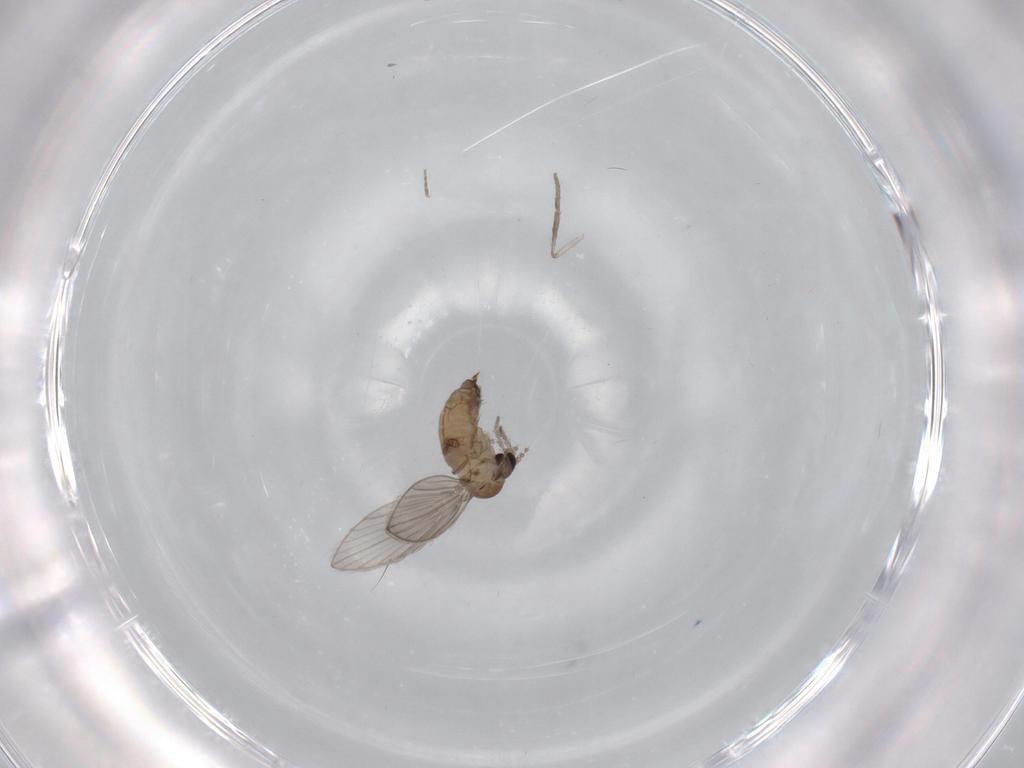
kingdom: Animalia
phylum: Arthropoda
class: Insecta
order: Diptera
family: Psychodidae
